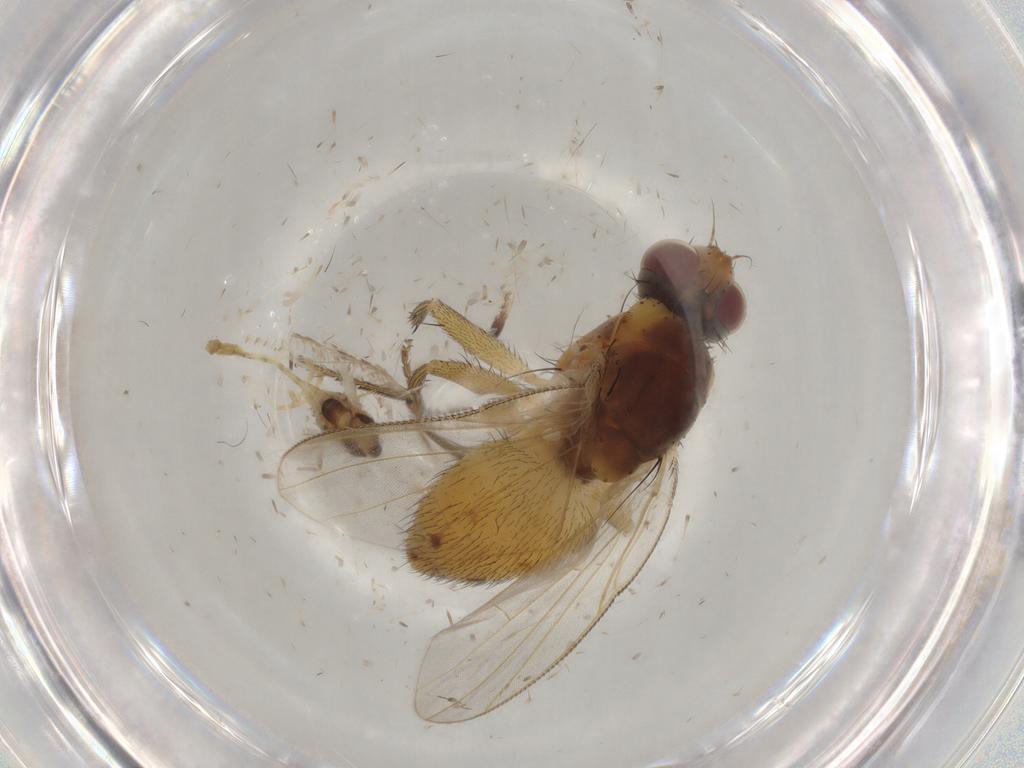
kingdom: Animalia
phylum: Arthropoda
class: Insecta
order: Diptera
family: Chironomidae
